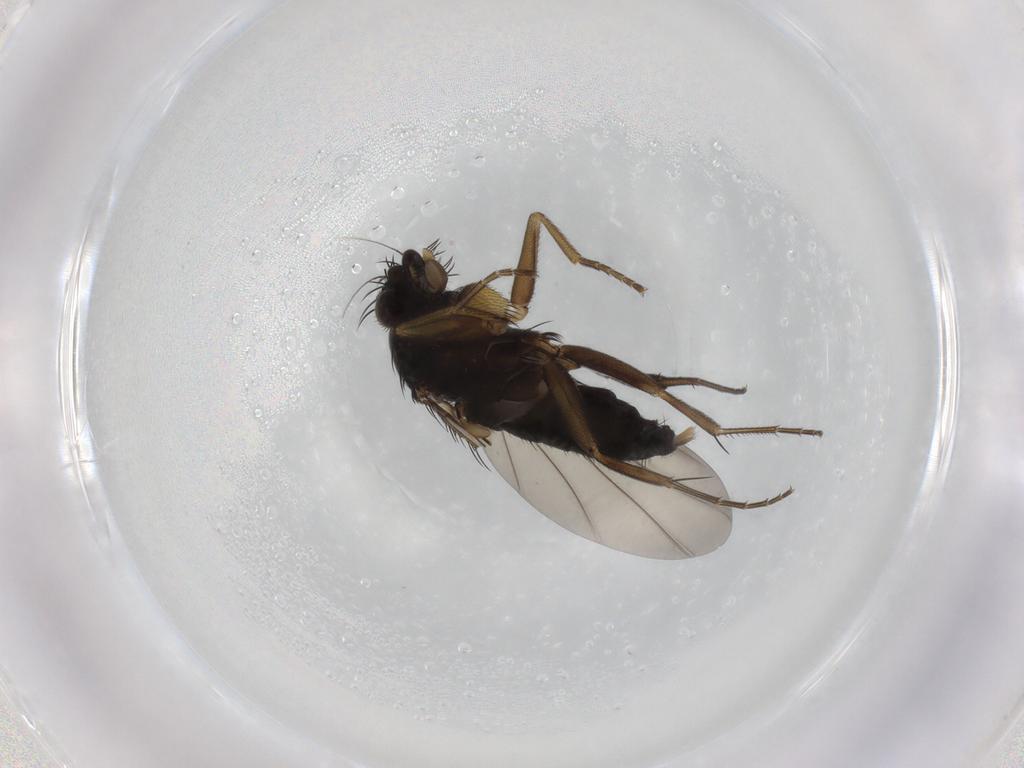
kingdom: Animalia
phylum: Arthropoda
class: Insecta
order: Diptera
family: Phoridae
